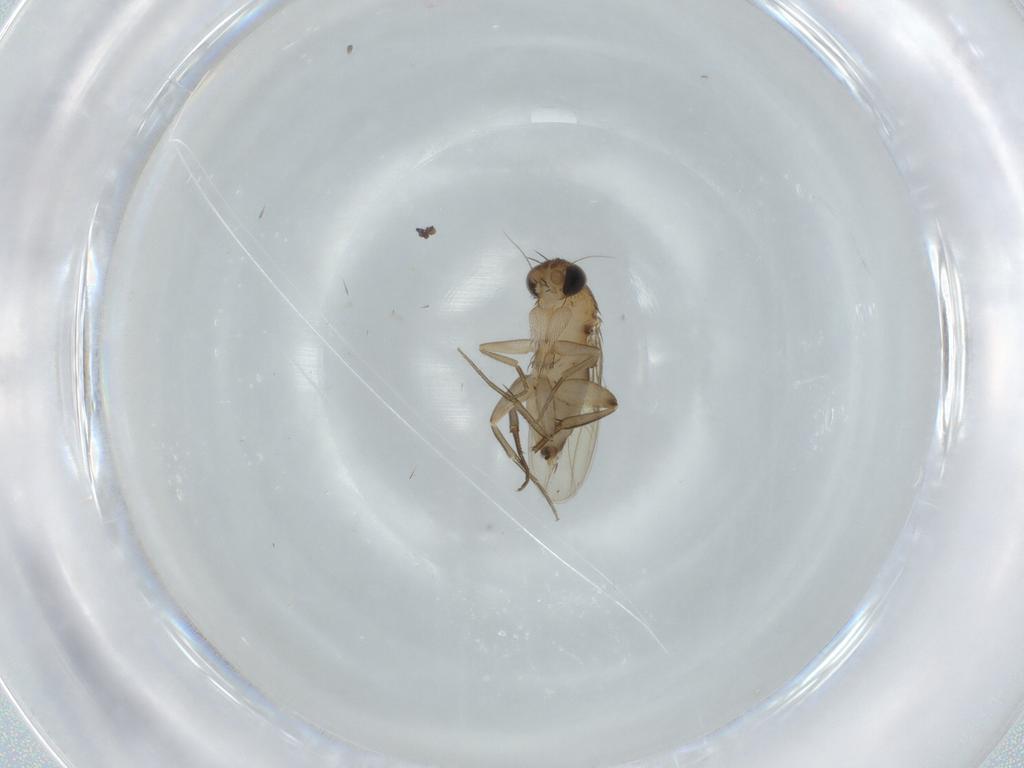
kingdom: Animalia
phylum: Arthropoda
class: Insecta
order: Diptera
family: Phoridae
